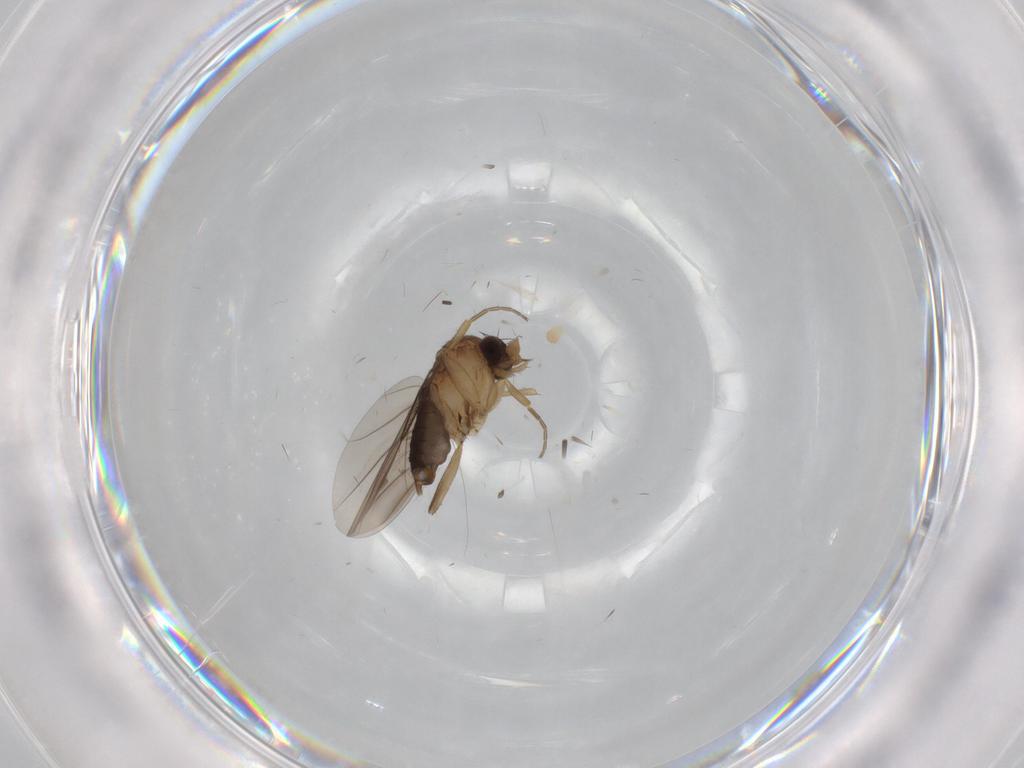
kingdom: Animalia
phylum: Arthropoda
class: Insecta
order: Diptera
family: Phoridae
